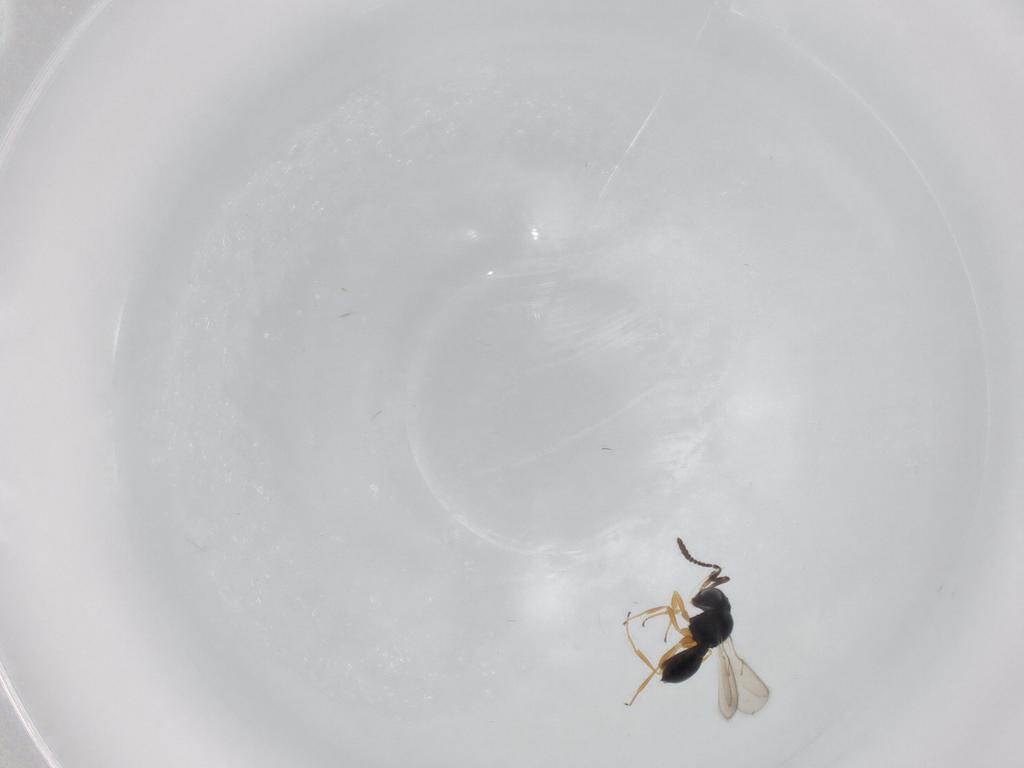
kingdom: Animalia
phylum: Arthropoda
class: Insecta
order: Hymenoptera
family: Scelionidae
